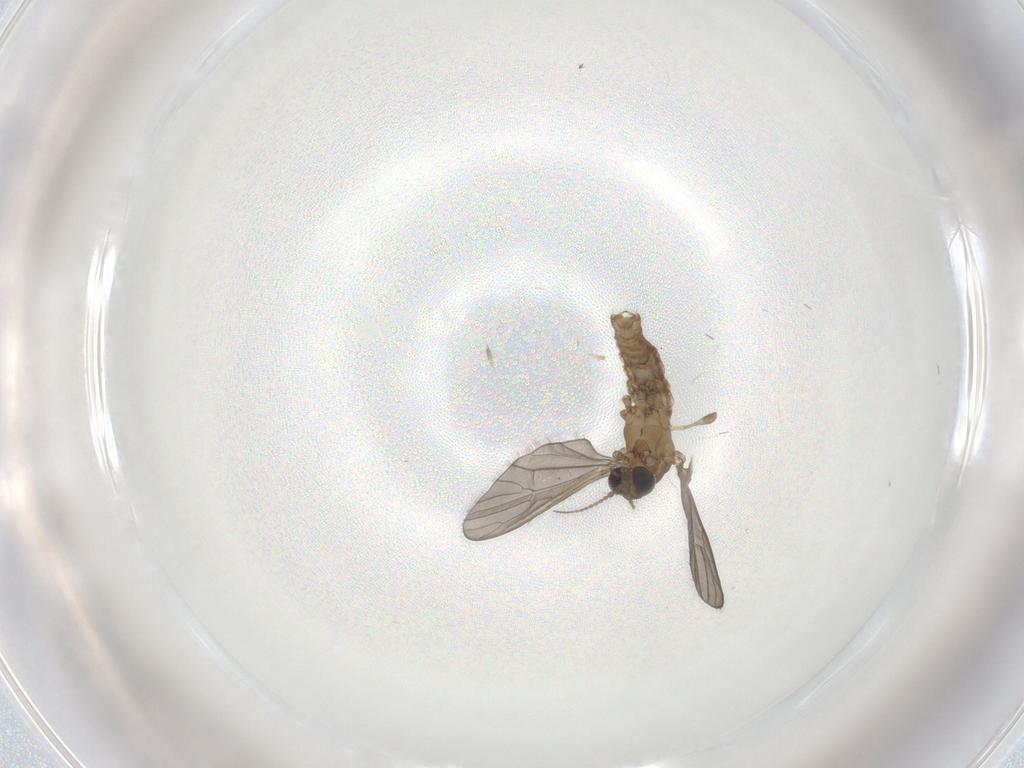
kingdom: Animalia
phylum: Arthropoda
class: Insecta
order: Diptera
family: Limoniidae
